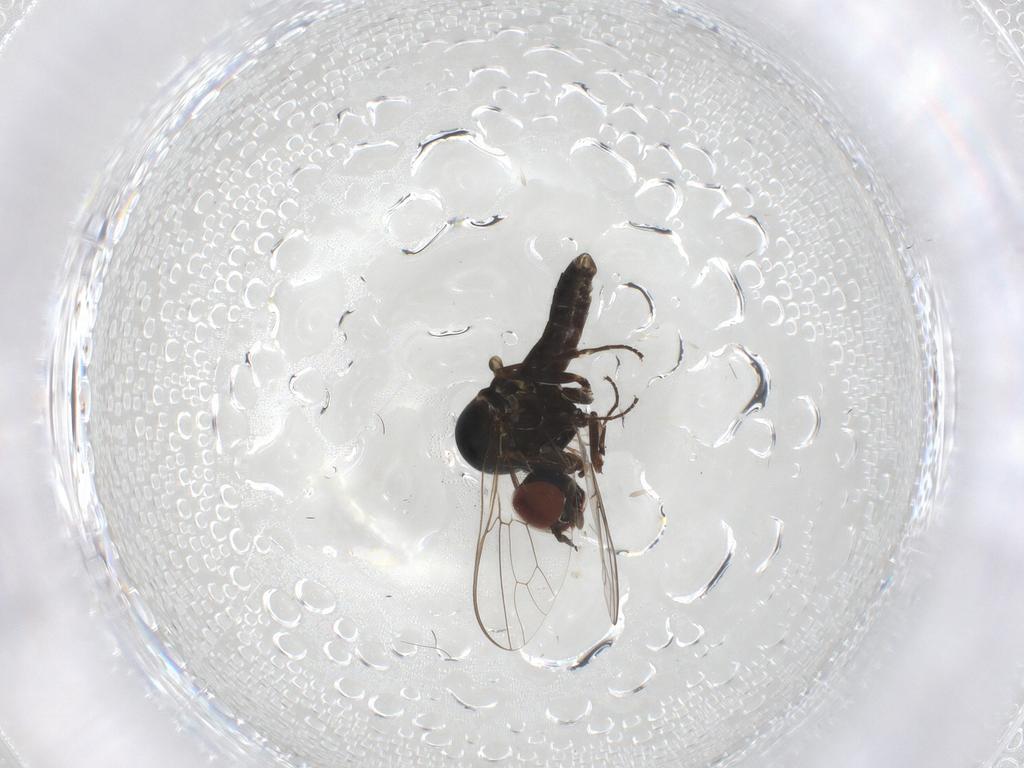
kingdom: Animalia
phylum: Arthropoda
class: Insecta
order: Diptera
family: Bombyliidae
